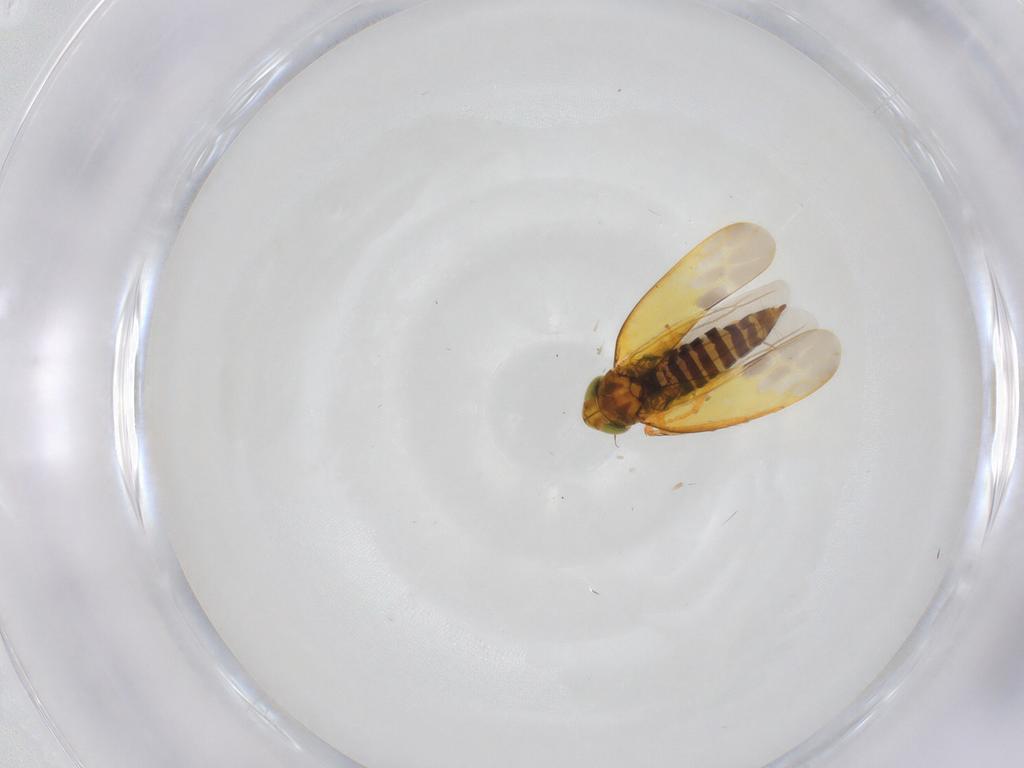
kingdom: Animalia
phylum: Arthropoda
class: Insecta
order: Hemiptera
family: Cicadellidae
